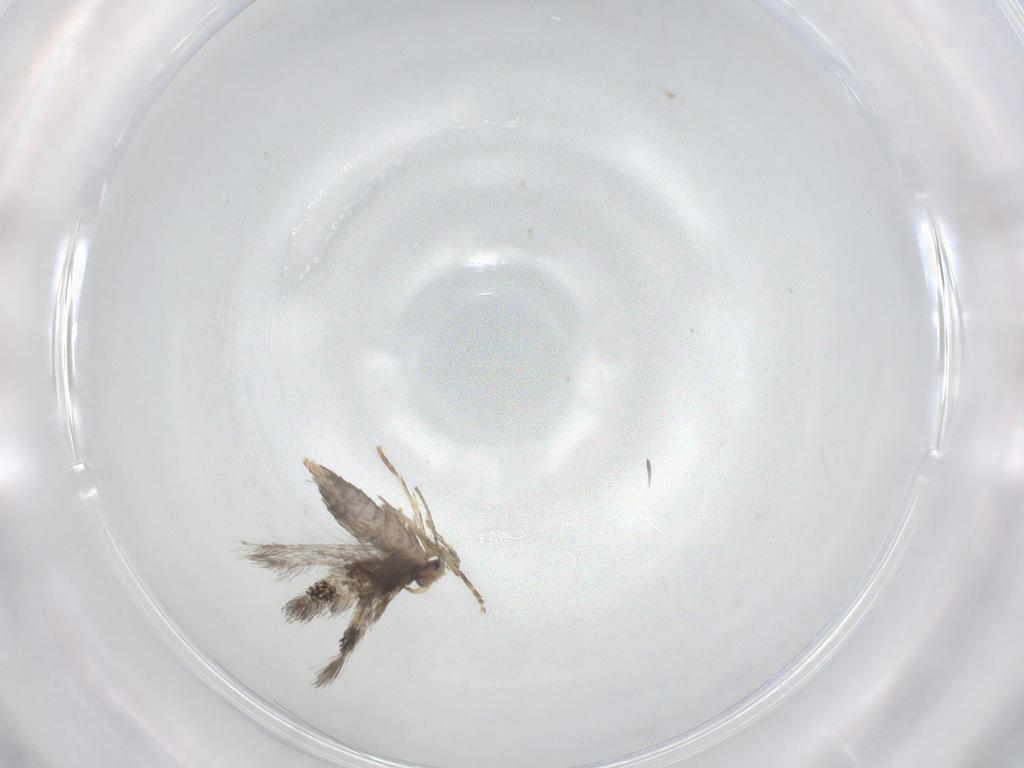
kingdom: Animalia
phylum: Arthropoda
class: Insecta
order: Lepidoptera
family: Nepticulidae
